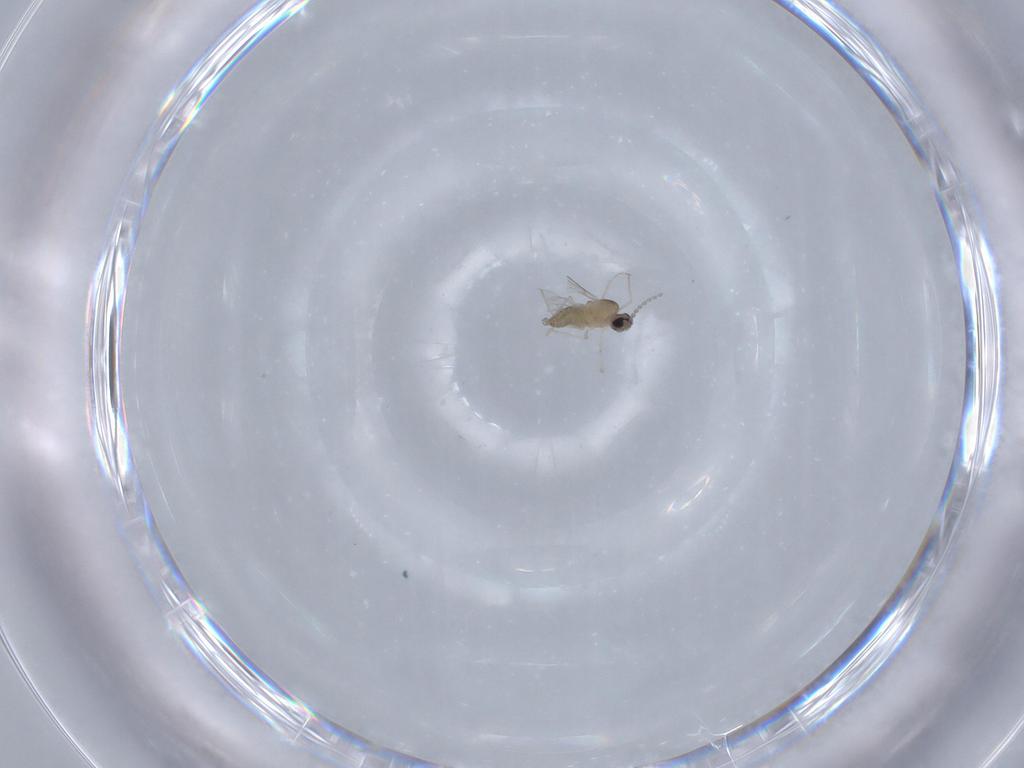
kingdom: Animalia
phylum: Arthropoda
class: Insecta
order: Diptera
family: Cecidomyiidae
